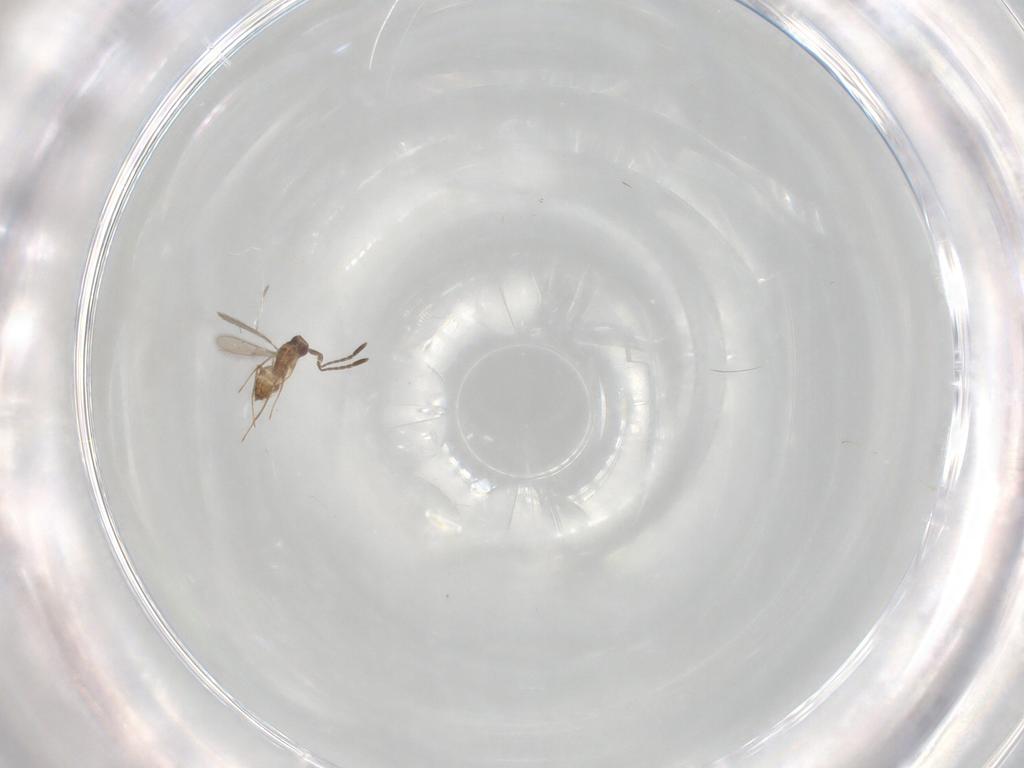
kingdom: Animalia
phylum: Arthropoda
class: Insecta
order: Hymenoptera
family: Mymaridae
